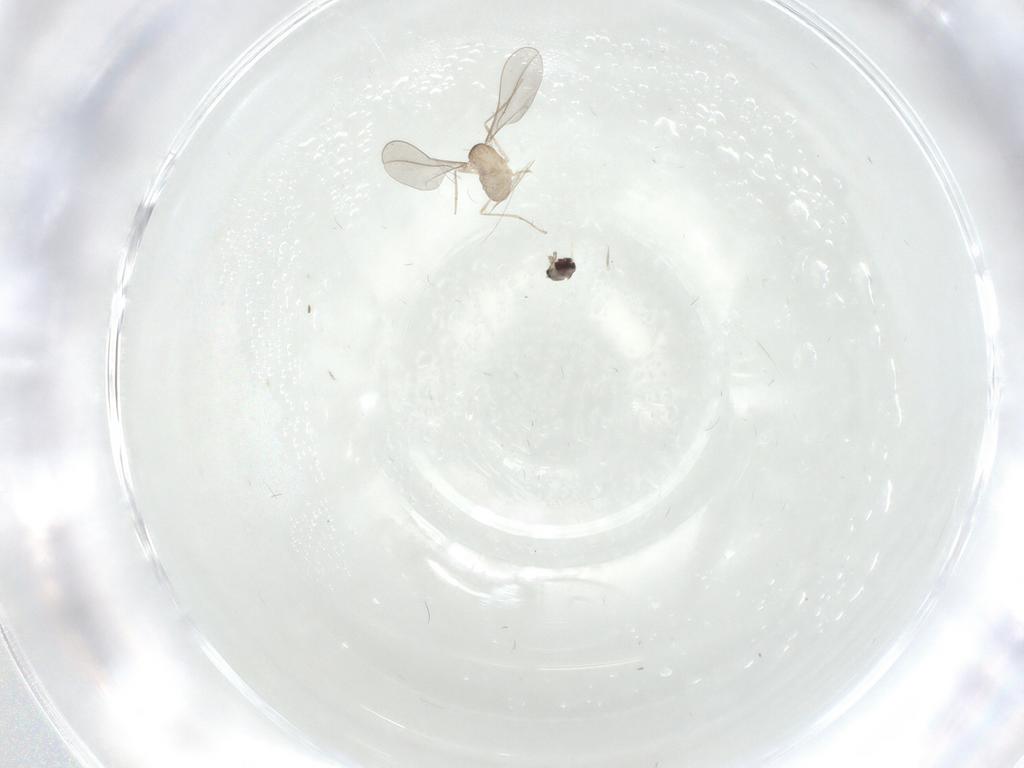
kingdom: Animalia
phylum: Arthropoda
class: Insecta
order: Diptera
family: Cecidomyiidae
